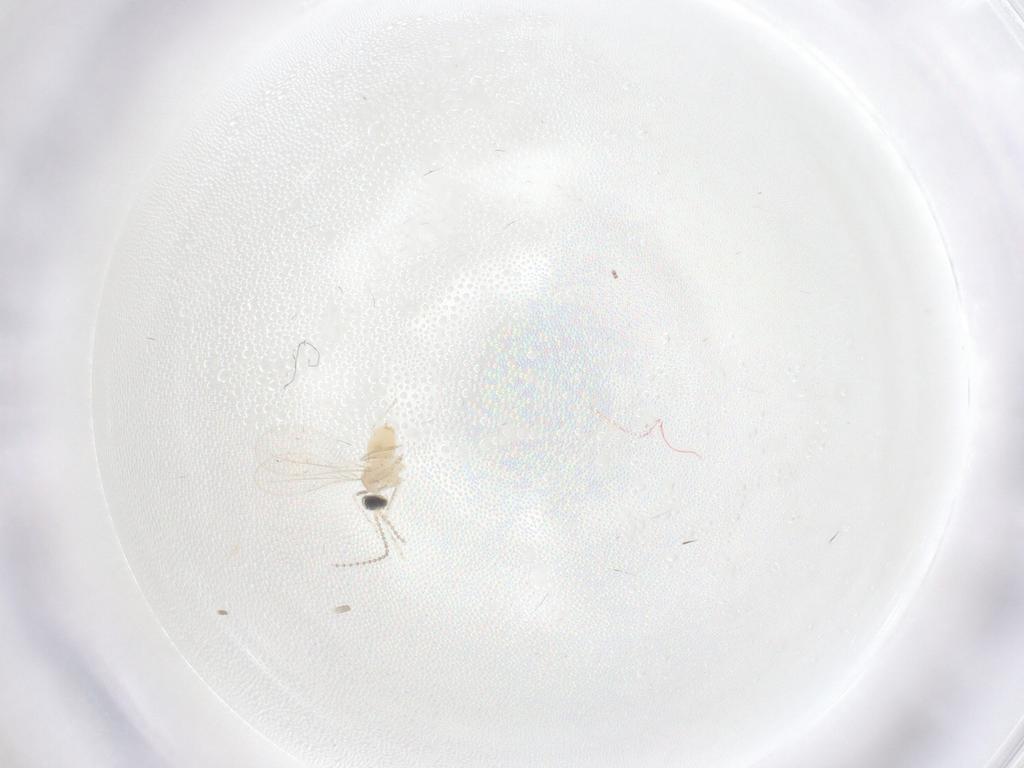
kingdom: Animalia
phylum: Arthropoda
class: Insecta
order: Diptera
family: Cecidomyiidae
